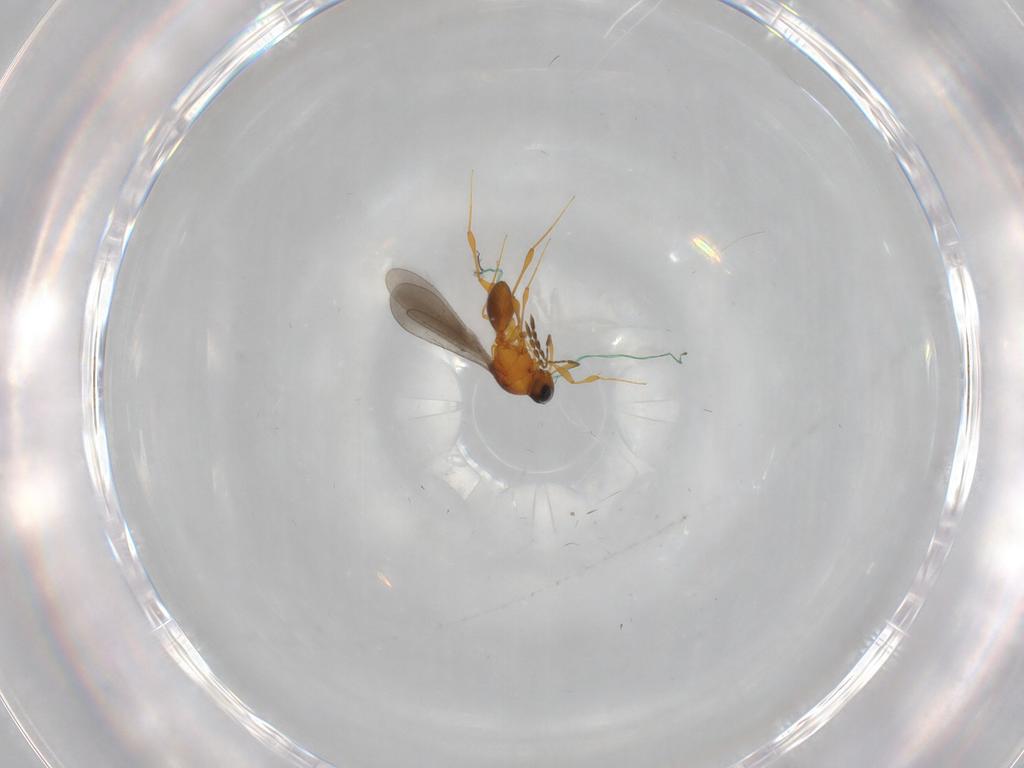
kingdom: Animalia
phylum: Arthropoda
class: Insecta
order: Hymenoptera
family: Platygastridae
